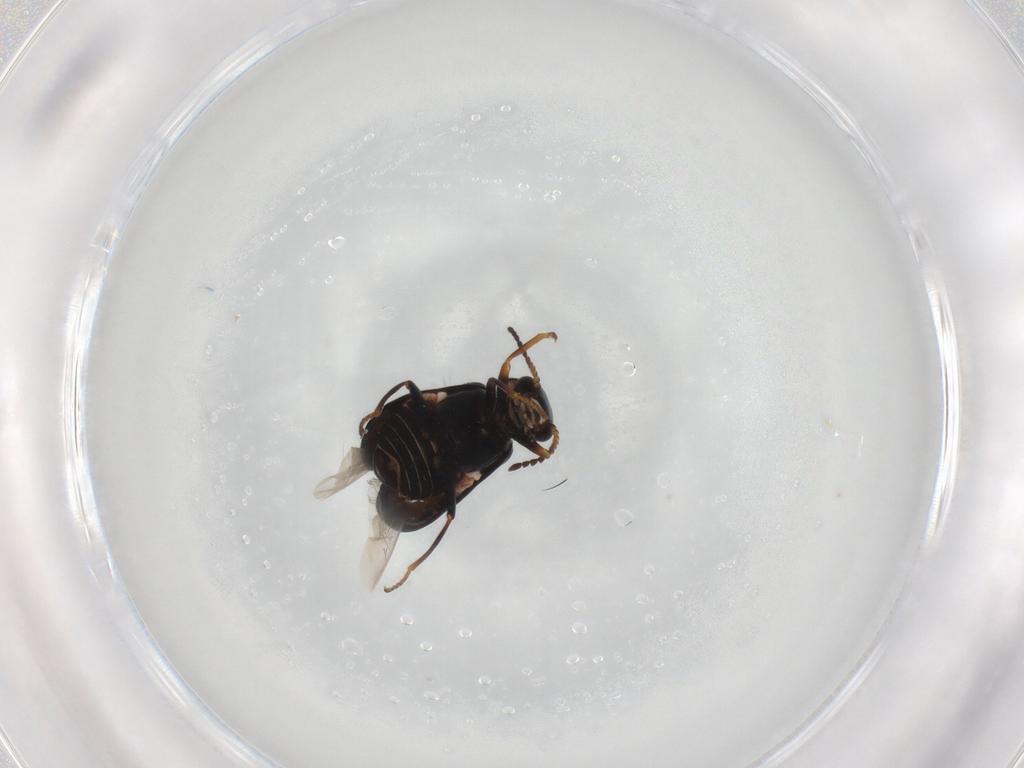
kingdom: Animalia
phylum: Arthropoda
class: Insecta
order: Coleoptera
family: Melyridae
